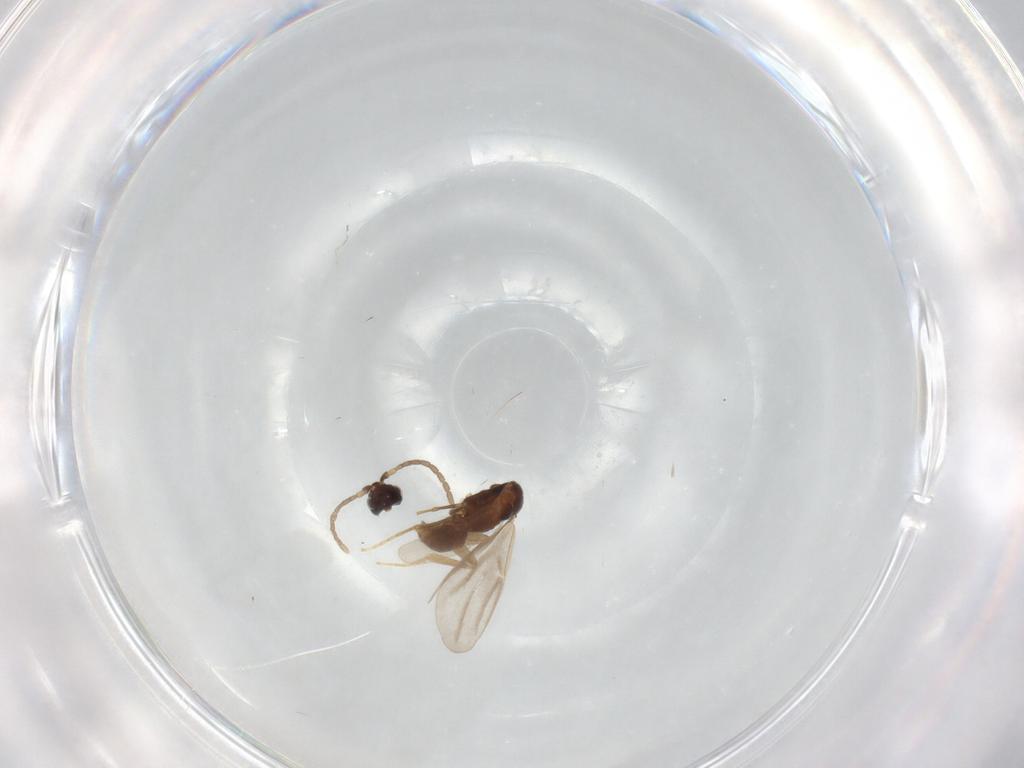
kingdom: Animalia
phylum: Arthropoda
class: Insecta
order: Hymenoptera
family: Dryinidae
